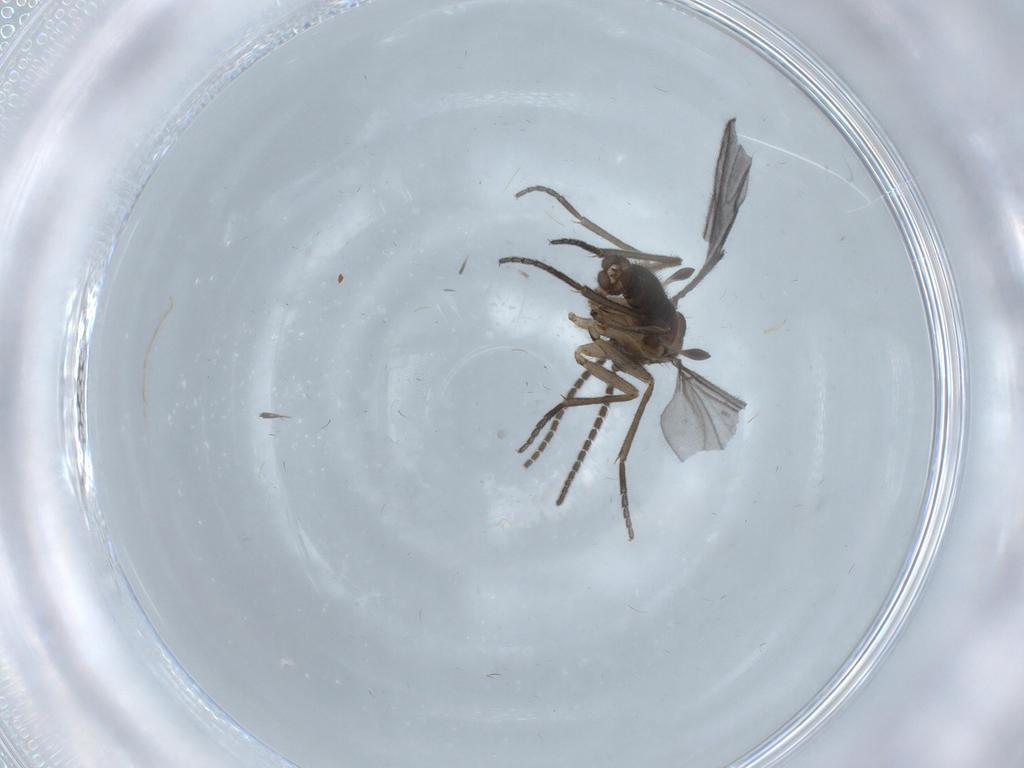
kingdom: Animalia
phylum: Arthropoda
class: Insecta
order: Diptera
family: Sciaridae
